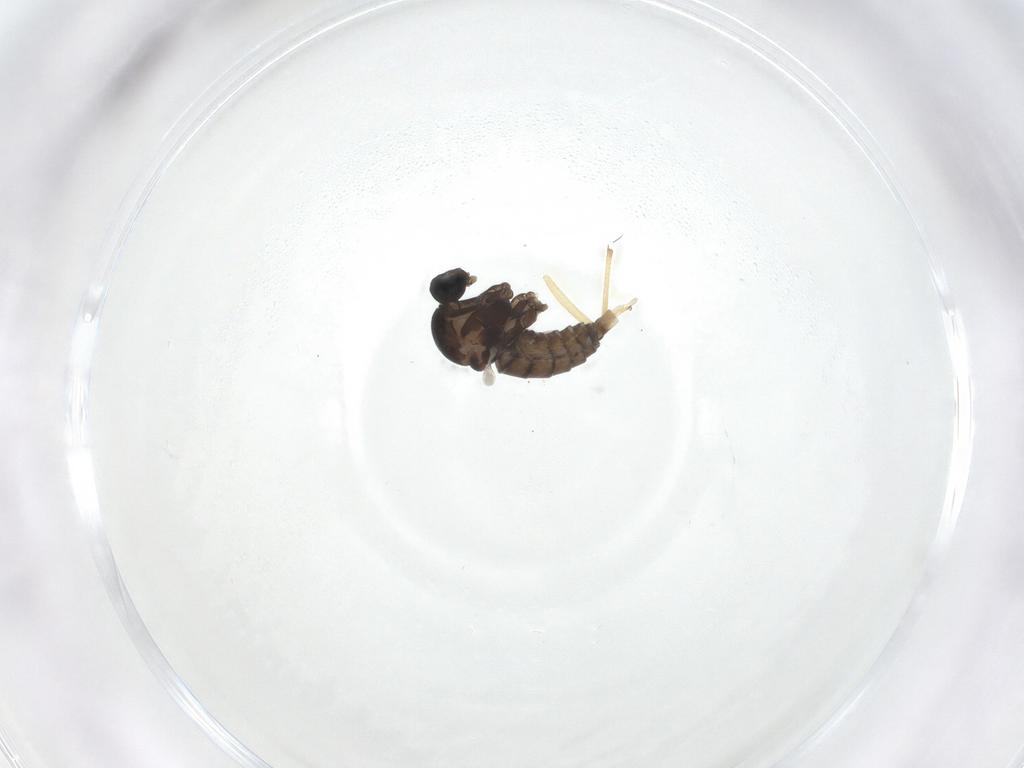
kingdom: Animalia
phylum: Arthropoda
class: Insecta
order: Diptera
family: Cecidomyiidae
